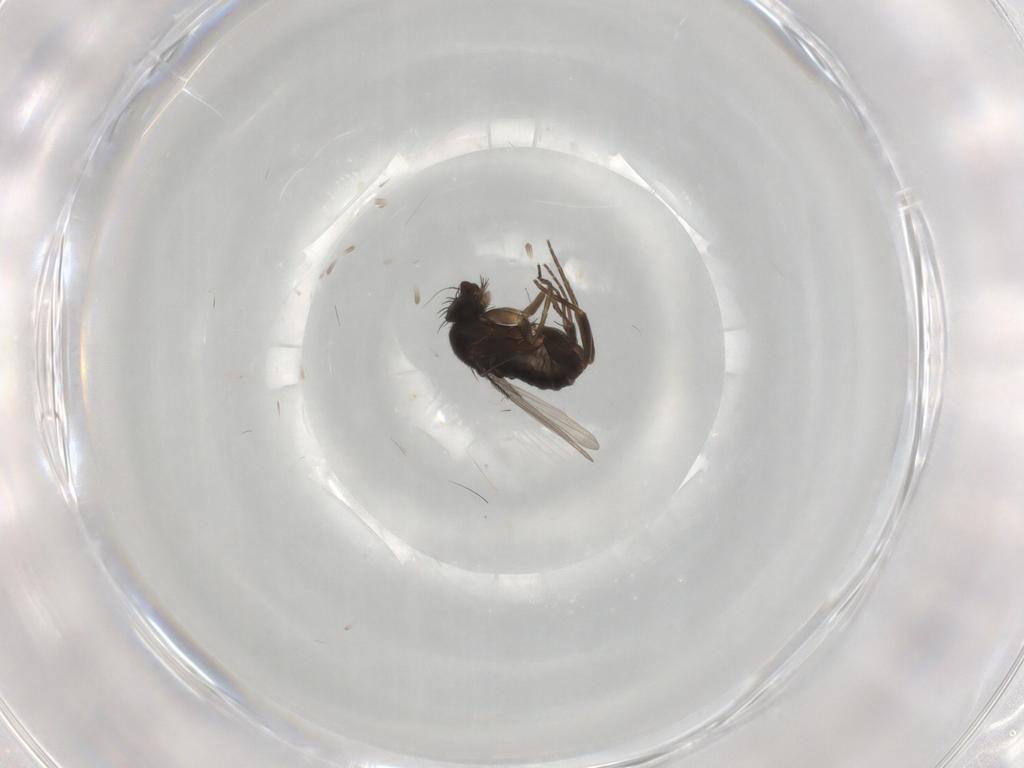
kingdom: Animalia
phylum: Arthropoda
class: Insecta
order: Diptera
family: Phoridae
